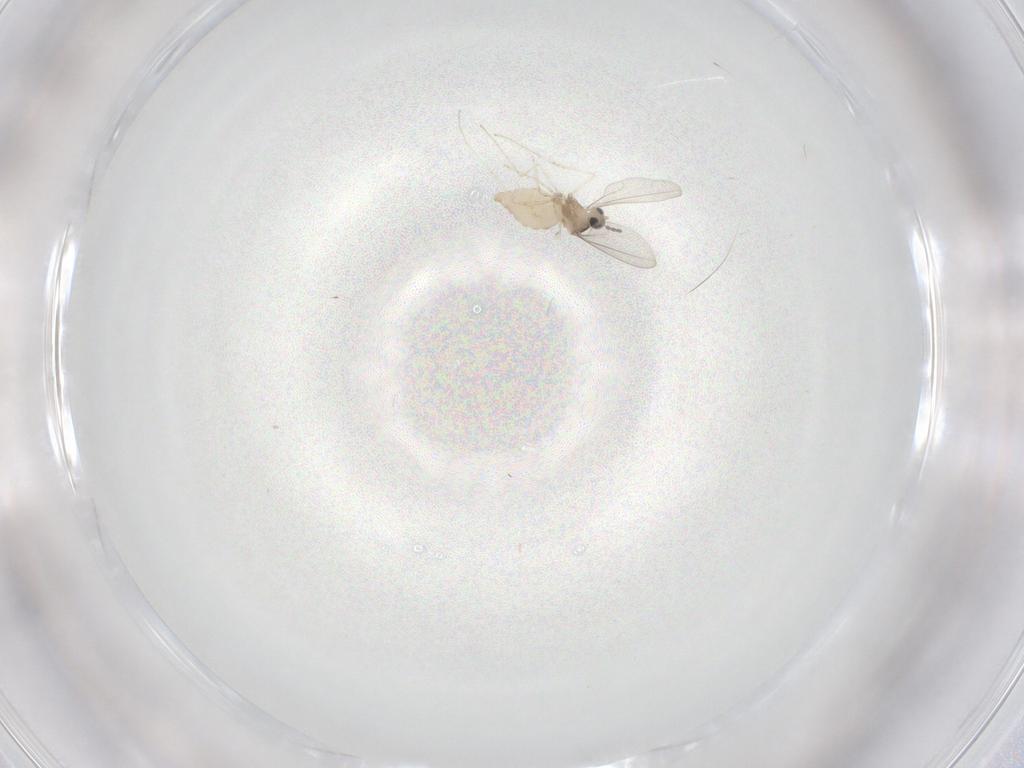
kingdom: Animalia
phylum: Arthropoda
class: Insecta
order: Diptera
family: Cecidomyiidae
